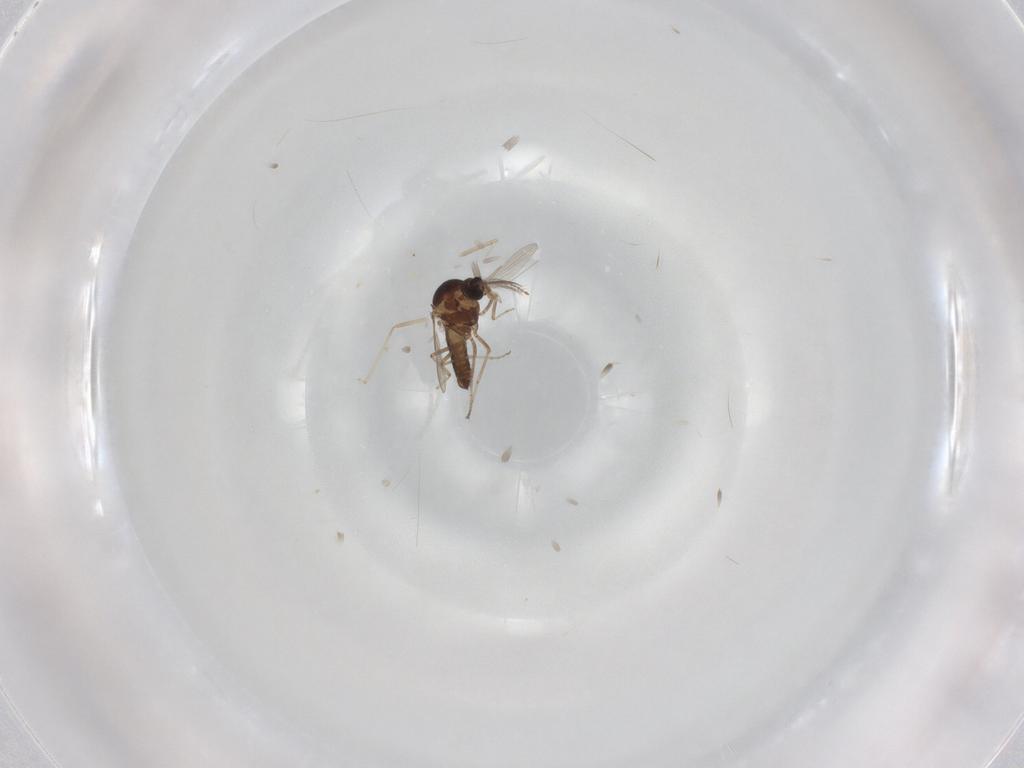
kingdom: Animalia
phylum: Arthropoda
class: Insecta
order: Diptera
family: Ceratopogonidae
